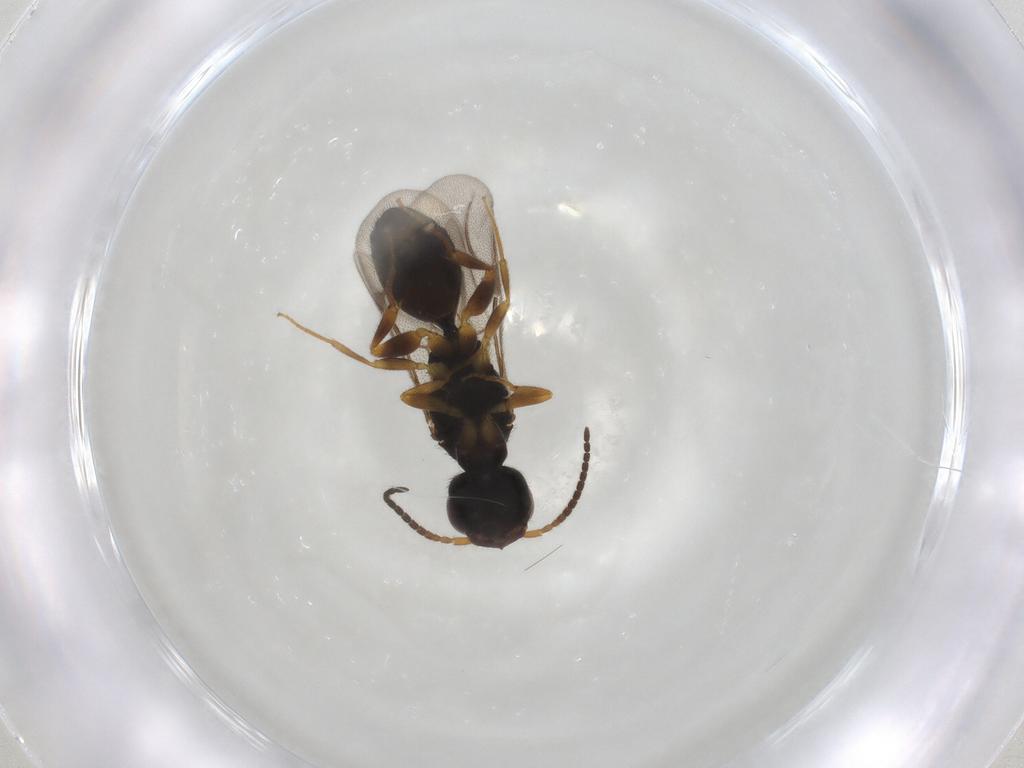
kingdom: Animalia
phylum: Arthropoda
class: Insecta
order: Hymenoptera
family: Bethylidae
